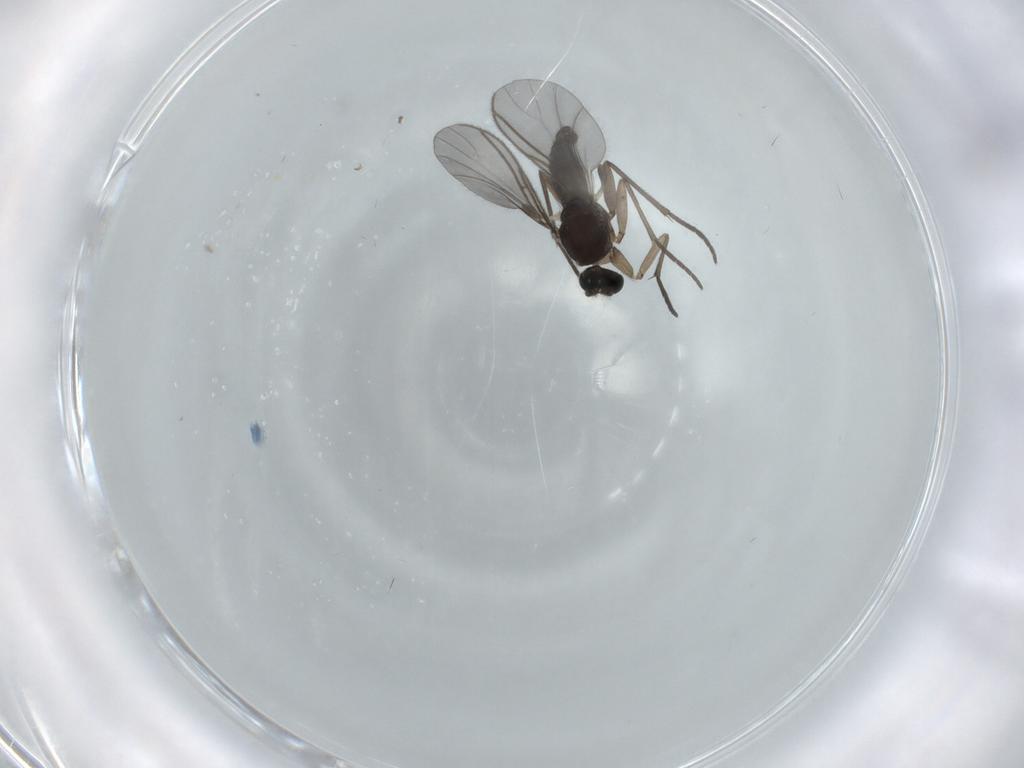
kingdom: Animalia
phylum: Arthropoda
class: Insecta
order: Diptera
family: Sciaridae
